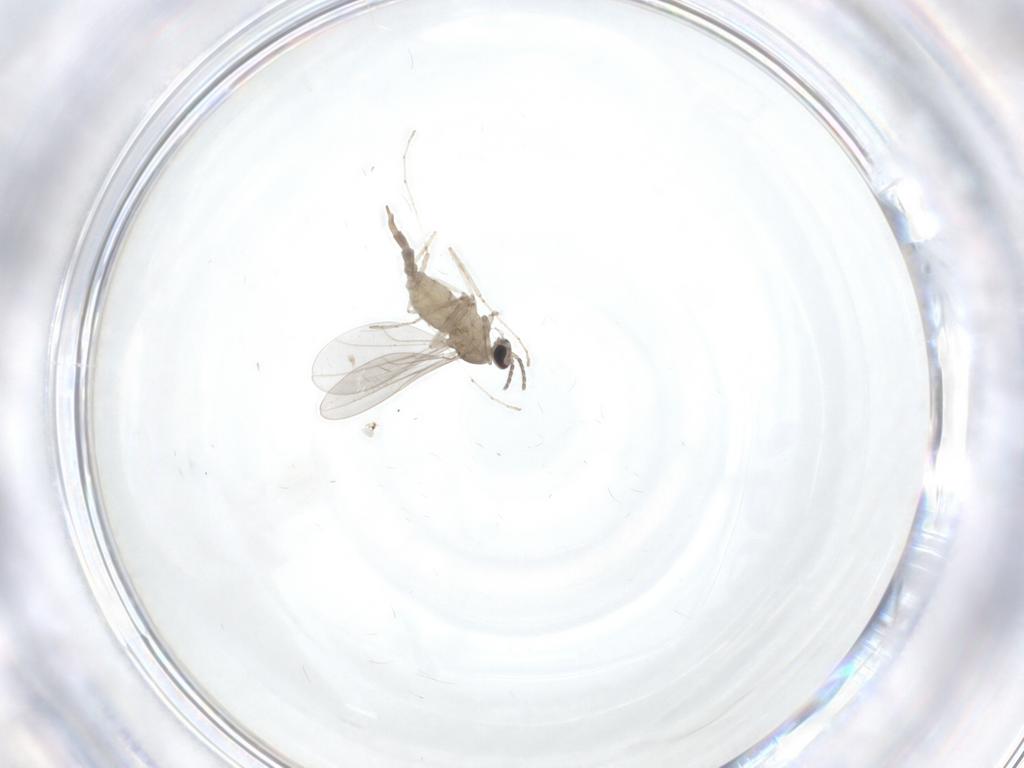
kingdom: Animalia
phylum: Arthropoda
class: Insecta
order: Diptera
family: Cecidomyiidae
